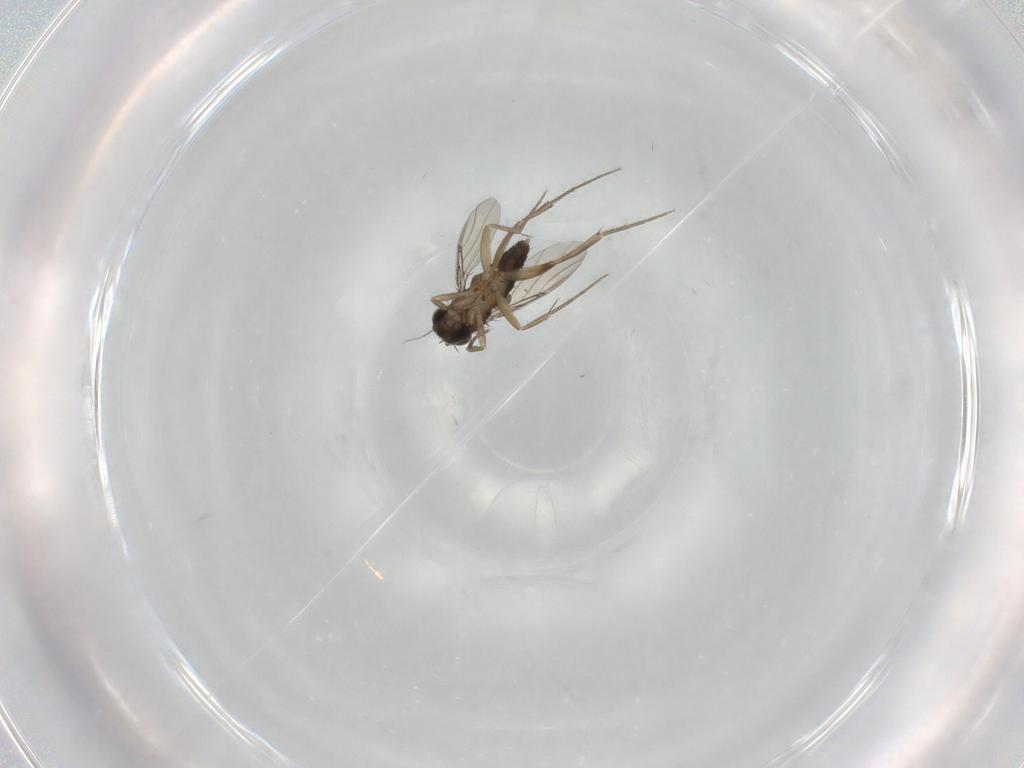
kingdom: Animalia
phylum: Arthropoda
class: Insecta
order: Diptera
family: Phoridae
